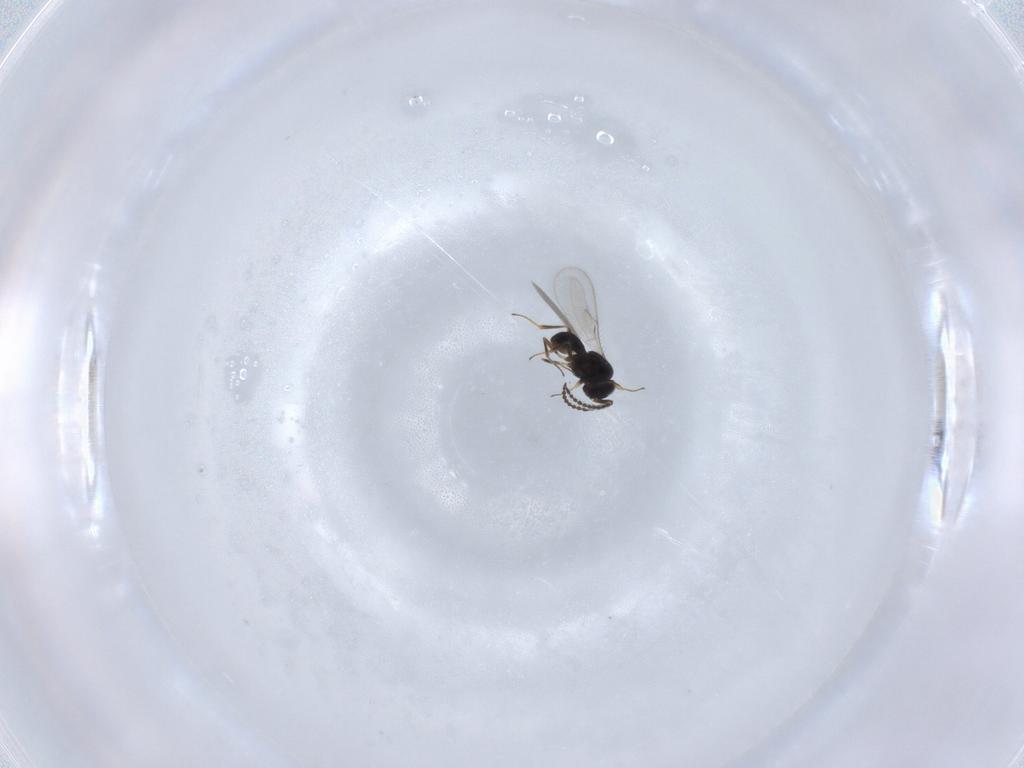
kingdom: Animalia
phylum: Arthropoda
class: Insecta
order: Hymenoptera
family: Scelionidae
